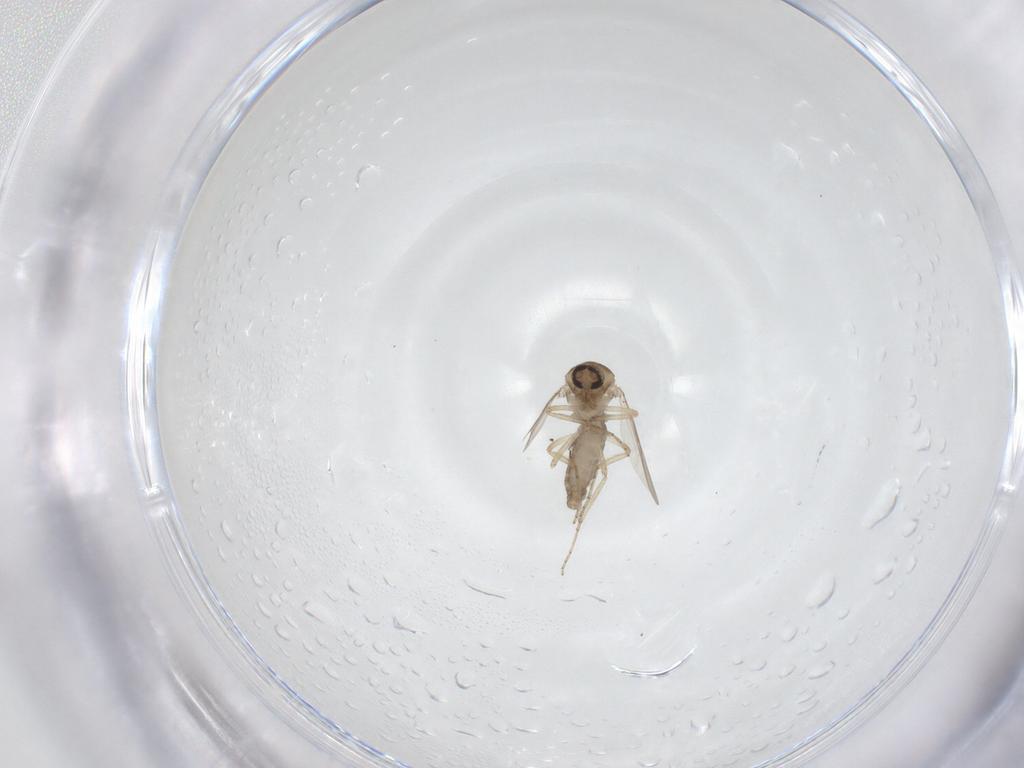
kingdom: Animalia
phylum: Arthropoda
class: Insecta
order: Diptera
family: Ceratopogonidae
